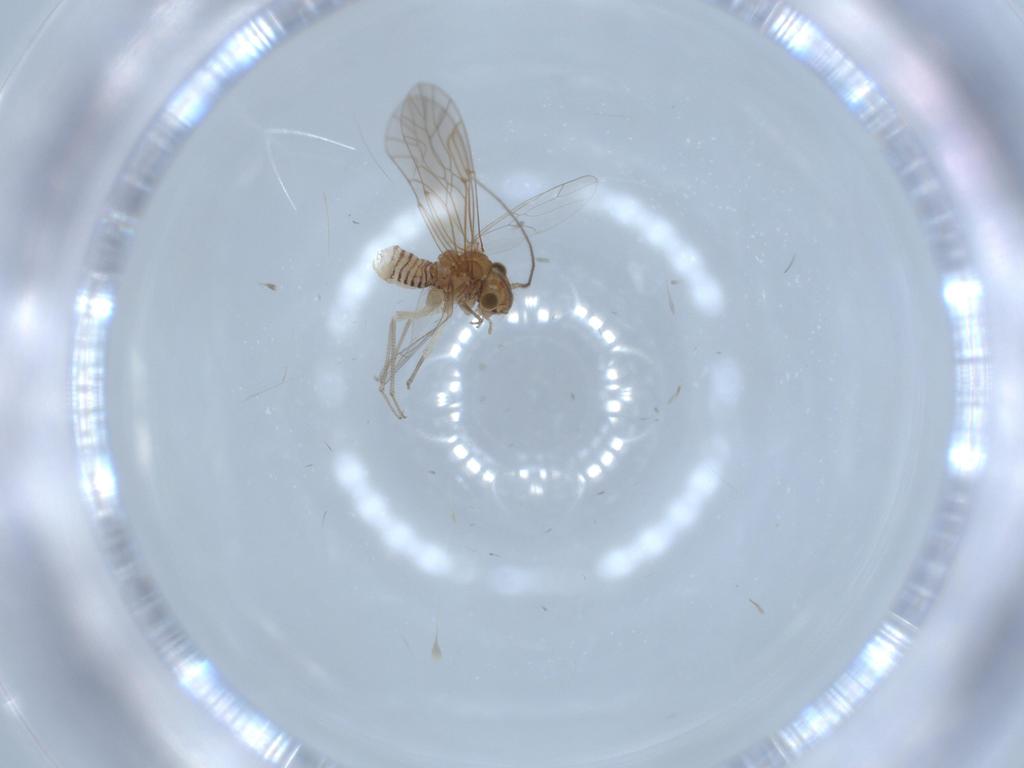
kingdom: Animalia
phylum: Arthropoda
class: Insecta
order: Psocodea
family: Lachesillidae
